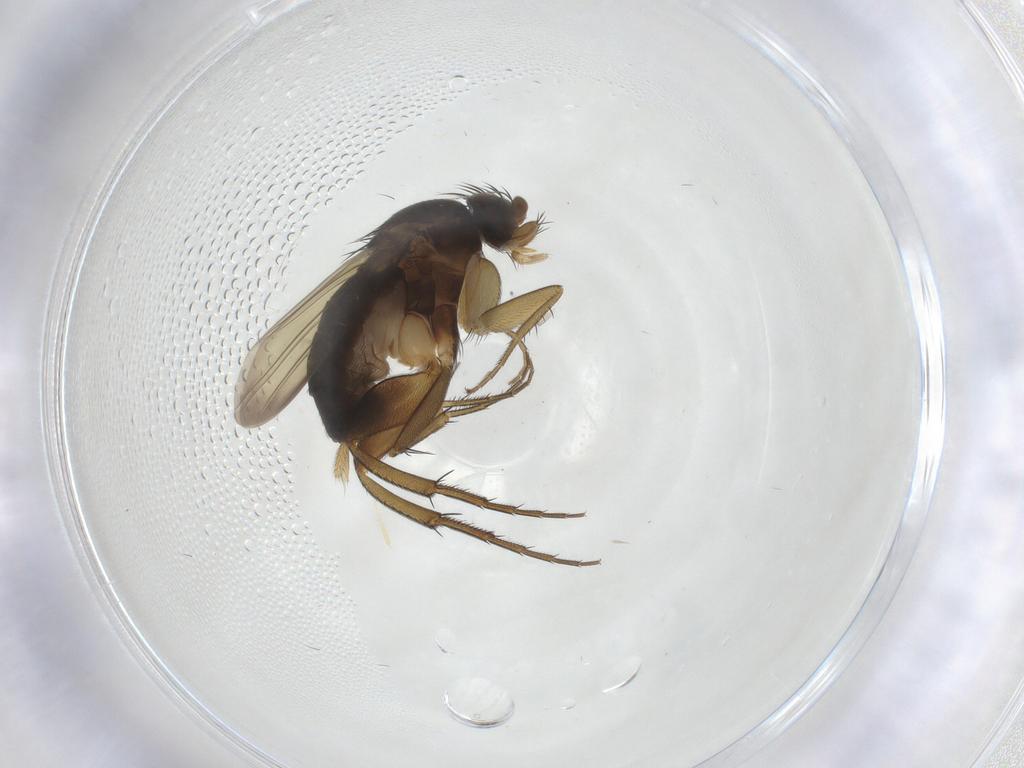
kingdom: Animalia
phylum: Arthropoda
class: Insecta
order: Diptera
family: Phoridae
